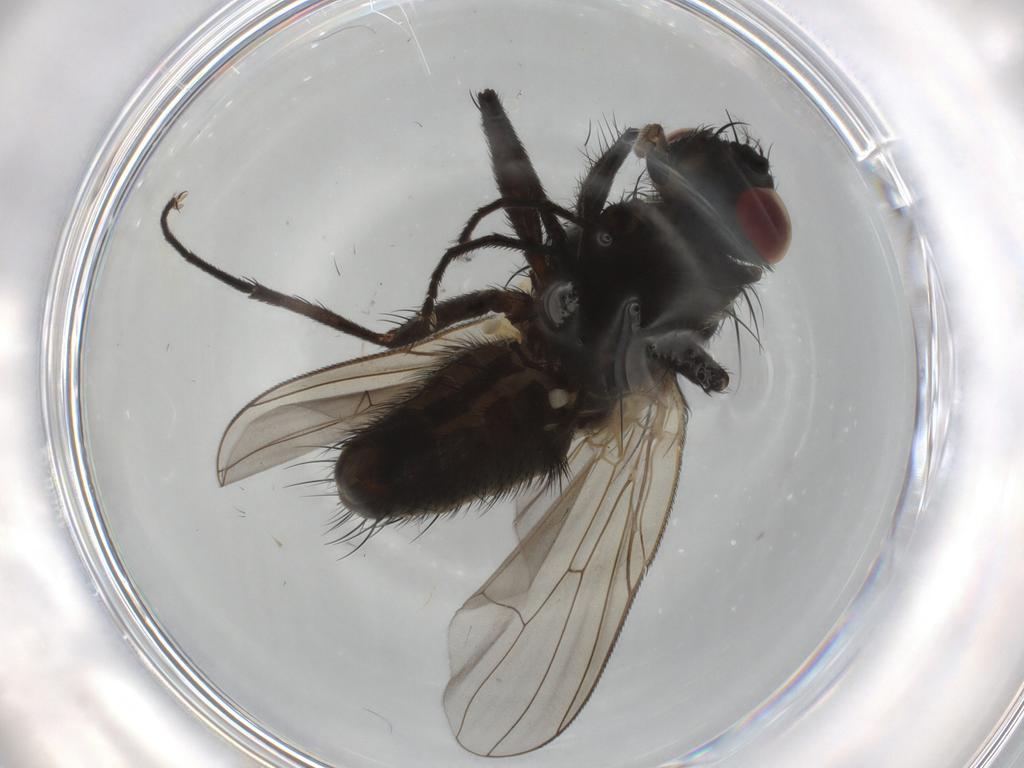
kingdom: Animalia
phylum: Arthropoda
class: Insecta
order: Diptera
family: Muscidae
